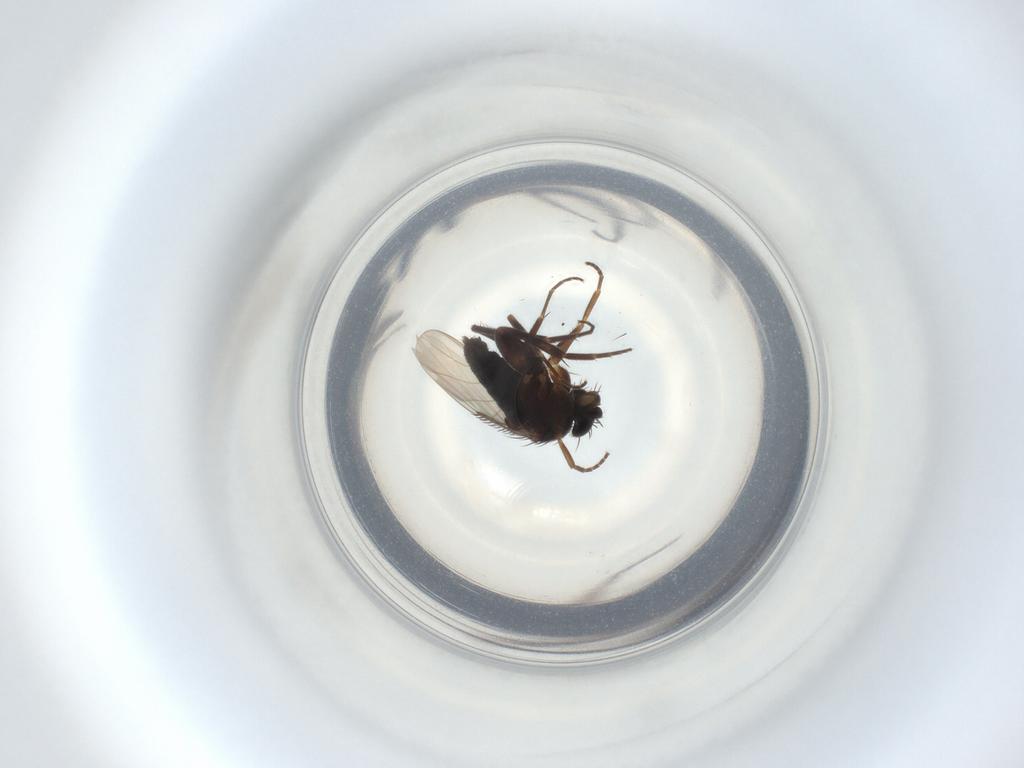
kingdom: Animalia
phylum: Arthropoda
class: Insecta
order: Diptera
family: Phoridae
